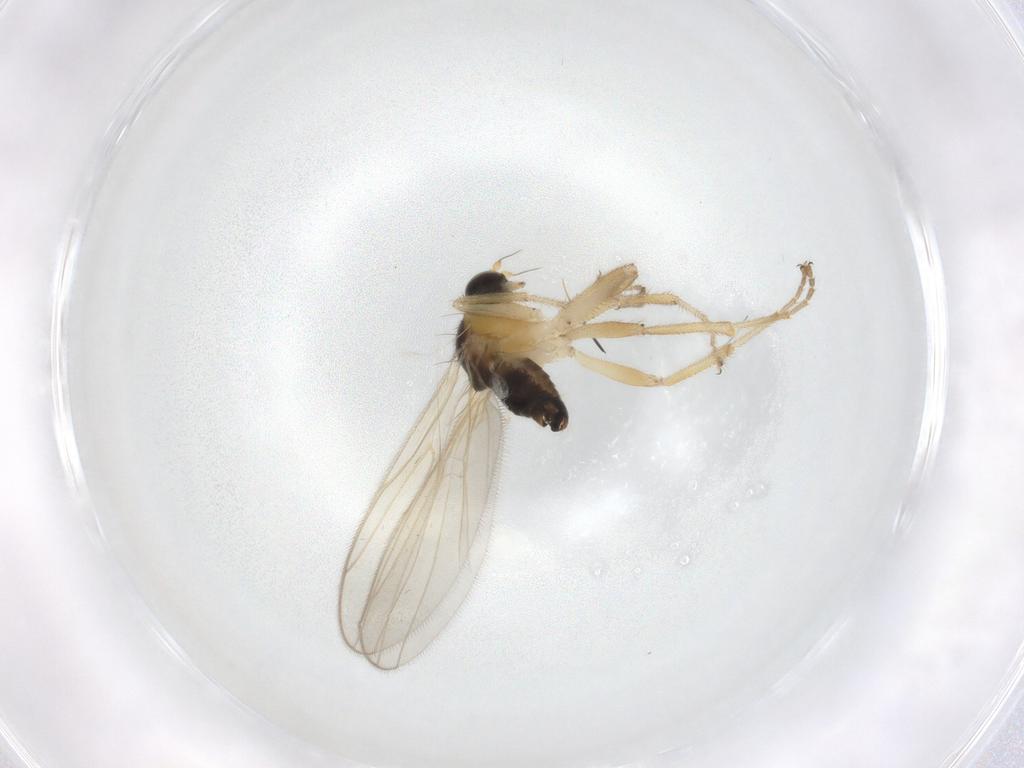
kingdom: Animalia
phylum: Arthropoda
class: Insecta
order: Diptera
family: Hybotidae
